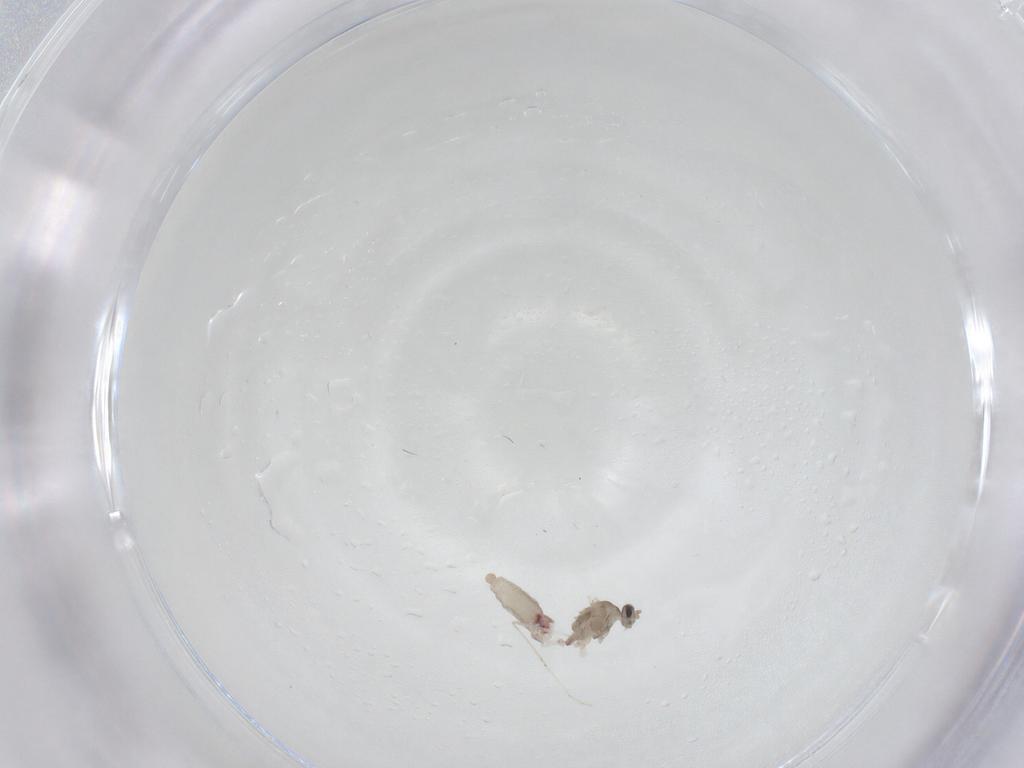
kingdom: Animalia
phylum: Arthropoda
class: Insecta
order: Diptera
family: Cecidomyiidae
